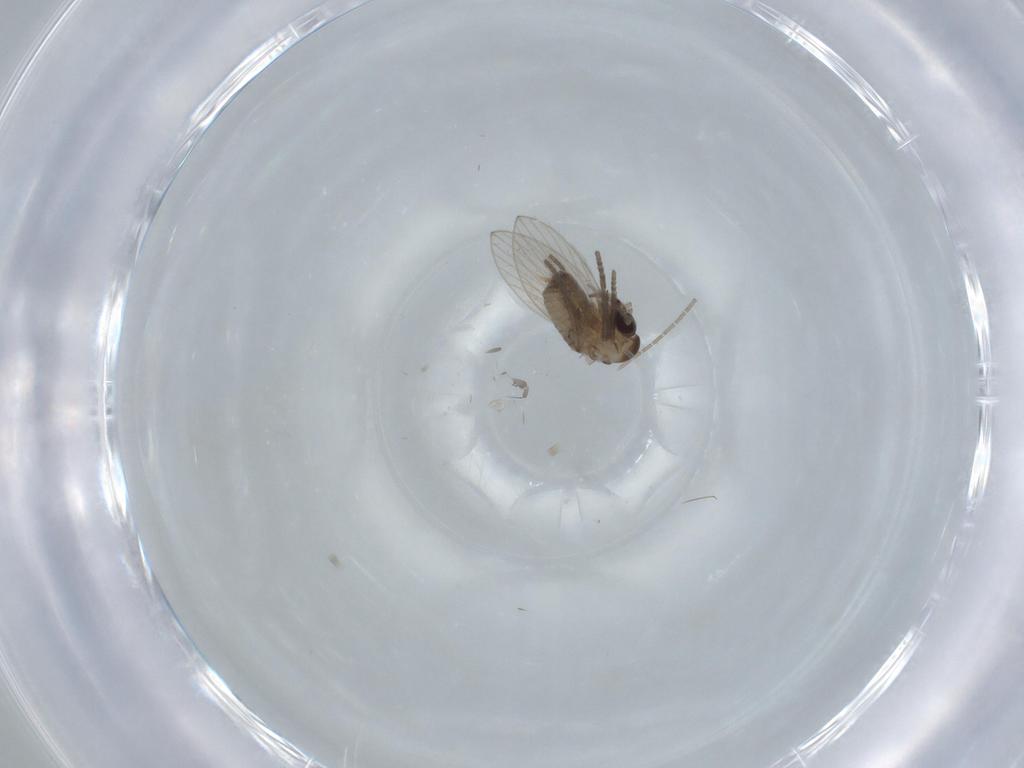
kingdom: Animalia
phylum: Arthropoda
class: Insecta
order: Diptera
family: Psychodidae
